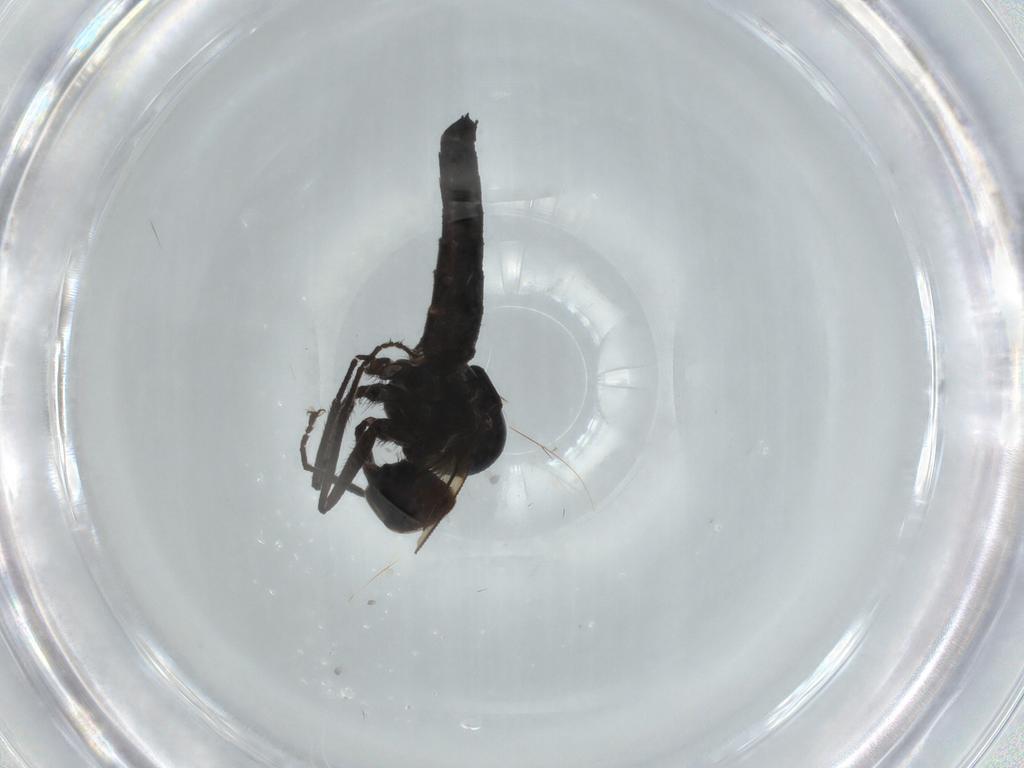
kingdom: Animalia
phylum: Arthropoda
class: Insecta
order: Diptera
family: Hybotidae
